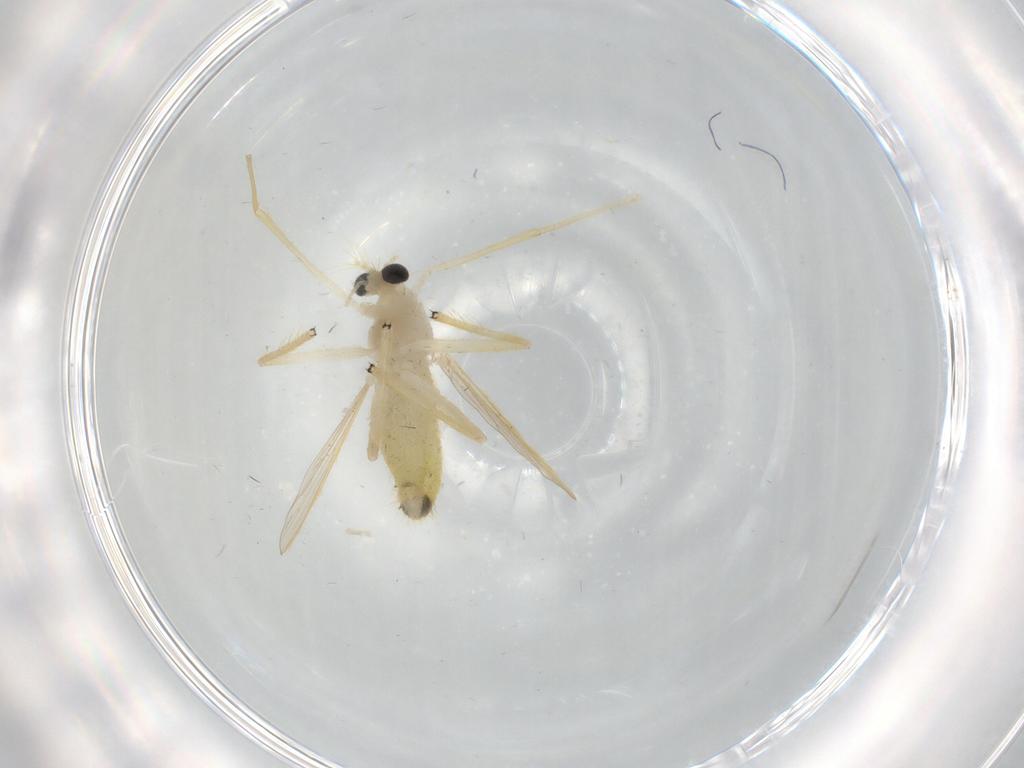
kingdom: Animalia
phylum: Arthropoda
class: Insecta
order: Diptera
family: Chironomidae
